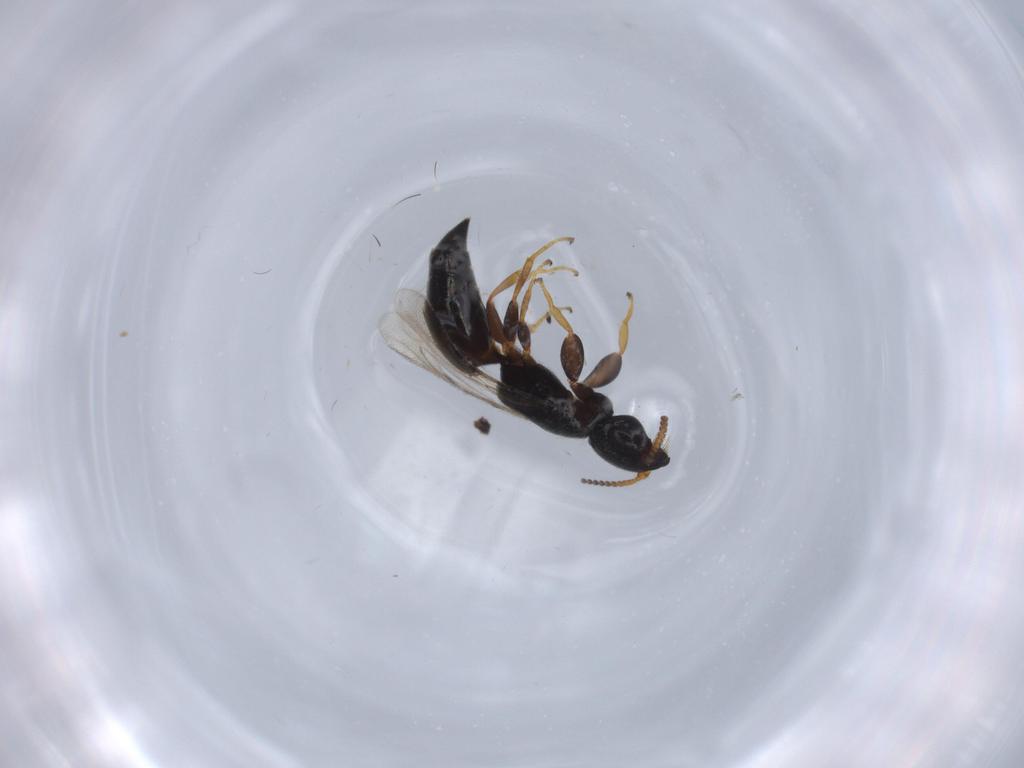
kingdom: Animalia
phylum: Arthropoda
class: Insecta
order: Hymenoptera
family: Bethylidae
